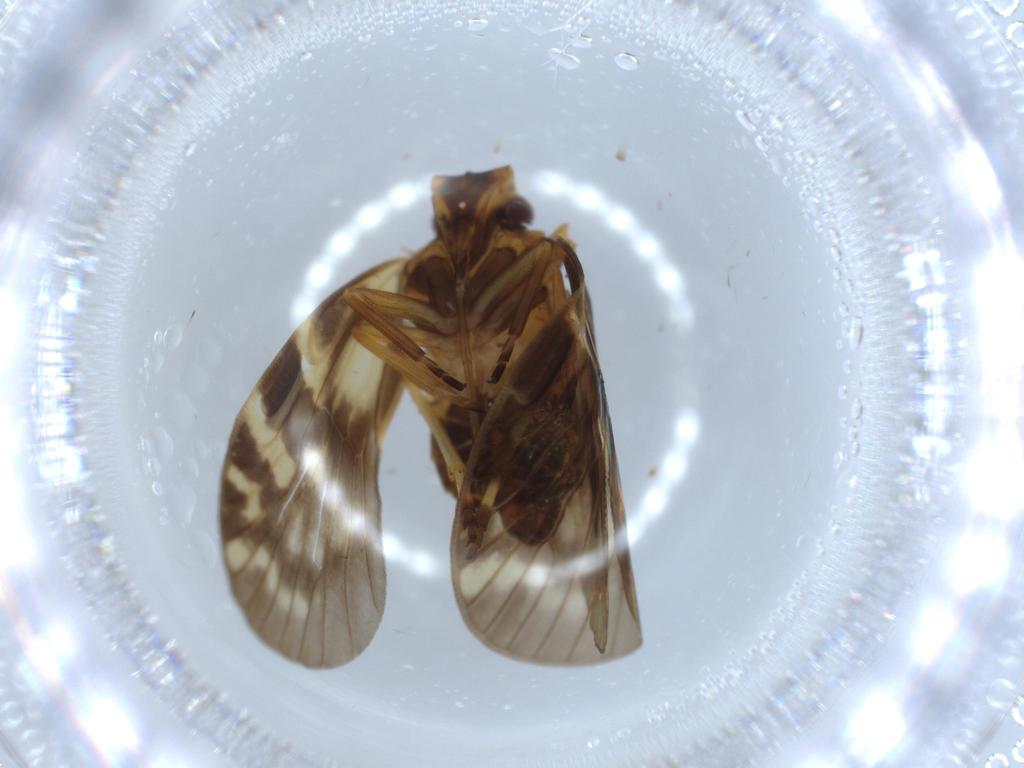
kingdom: Animalia
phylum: Arthropoda
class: Insecta
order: Hemiptera
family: Cixiidae
